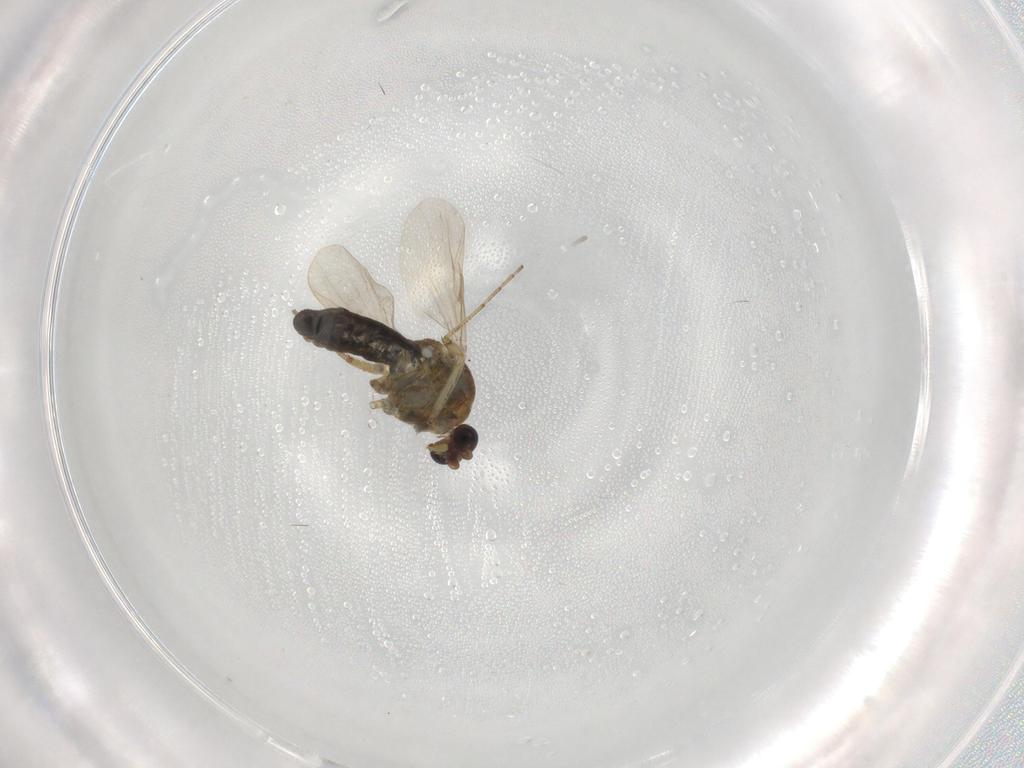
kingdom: Animalia
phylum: Arthropoda
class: Insecta
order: Diptera
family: Ceratopogonidae
